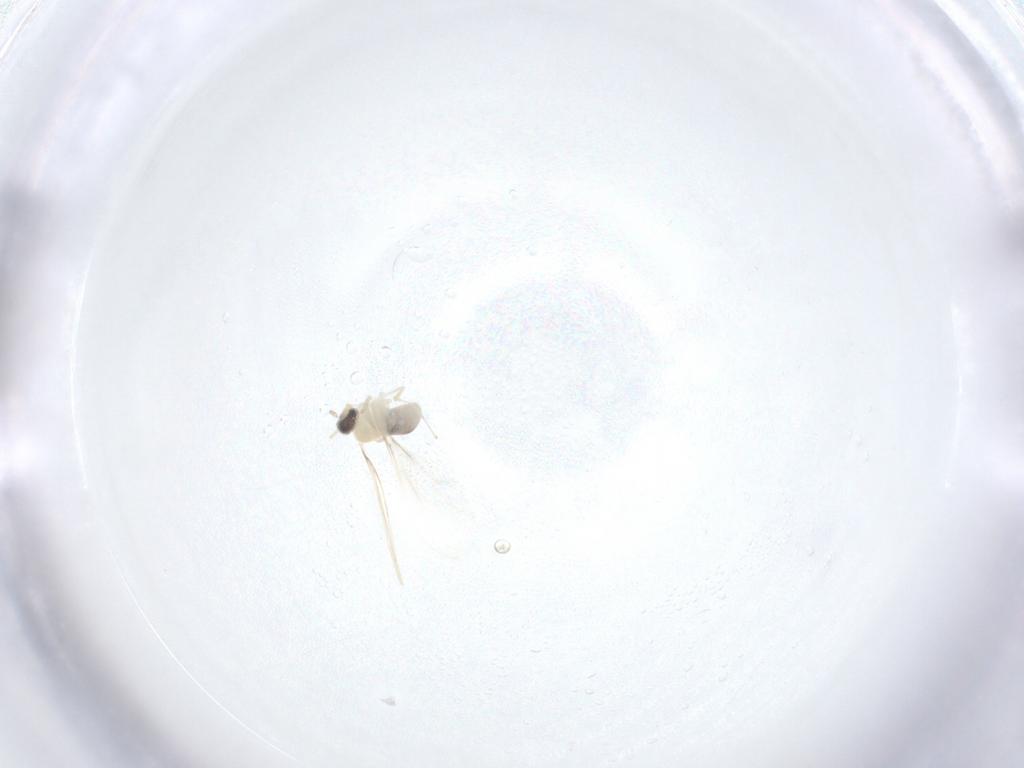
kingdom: Animalia
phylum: Arthropoda
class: Insecta
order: Diptera
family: Cecidomyiidae
